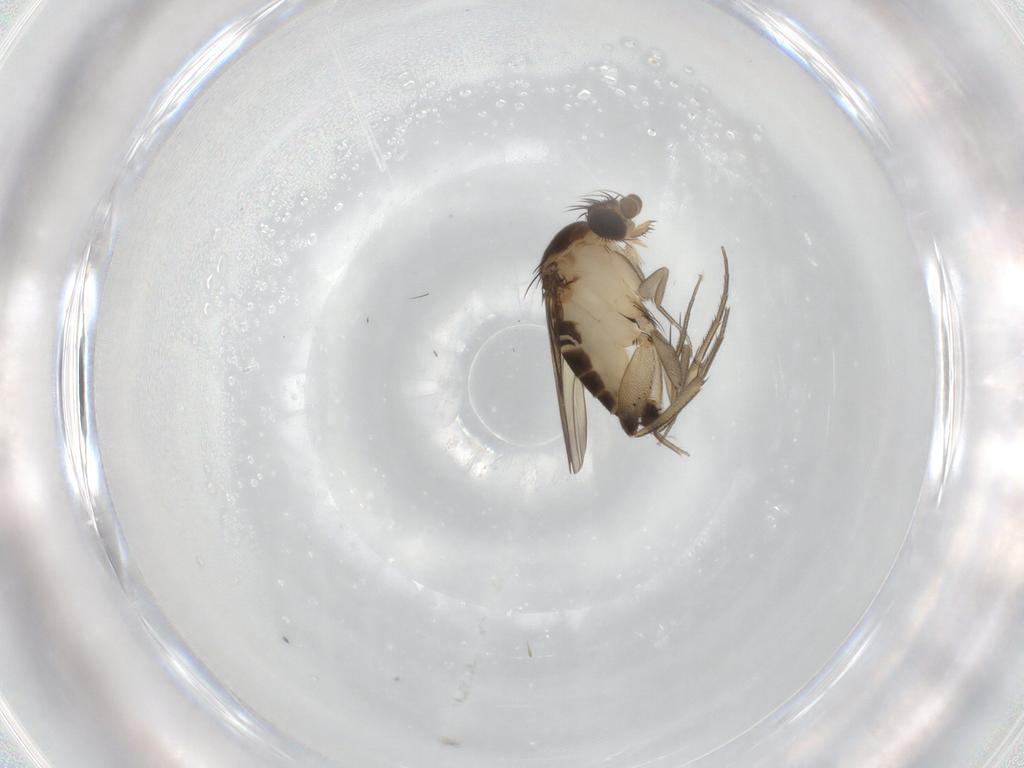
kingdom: Animalia
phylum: Arthropoda
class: Insecta
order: Diptera
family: Phoridae
